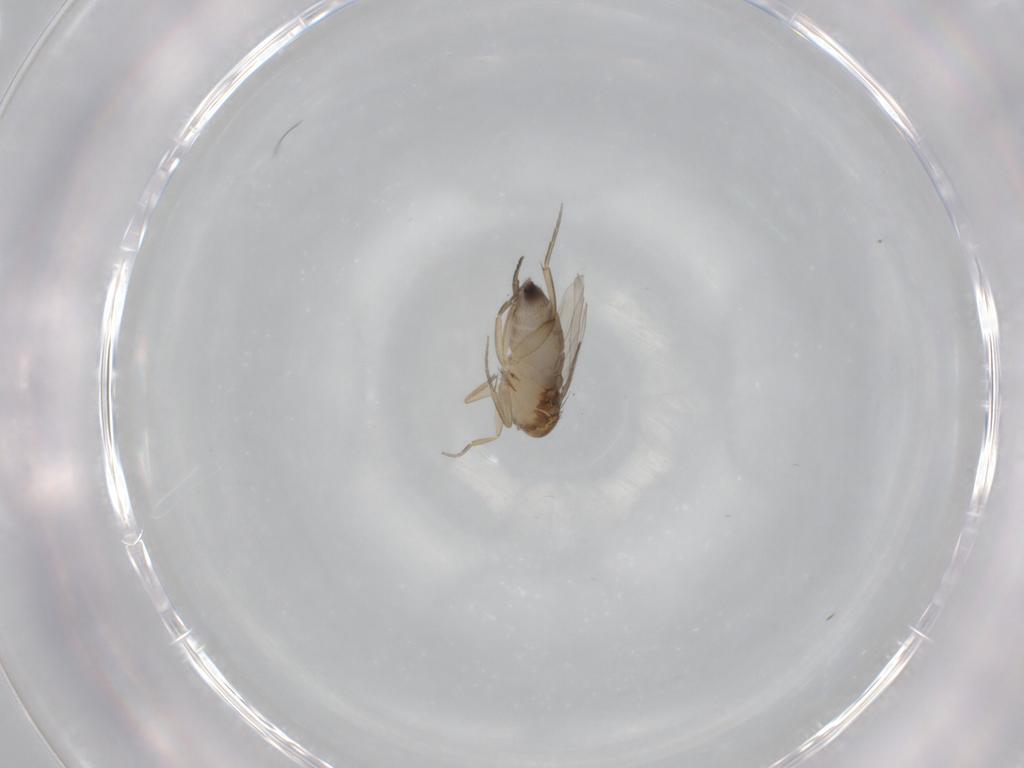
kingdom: Animalia
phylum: Arthropoda
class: Insecta
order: Diptera
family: Phoridae
